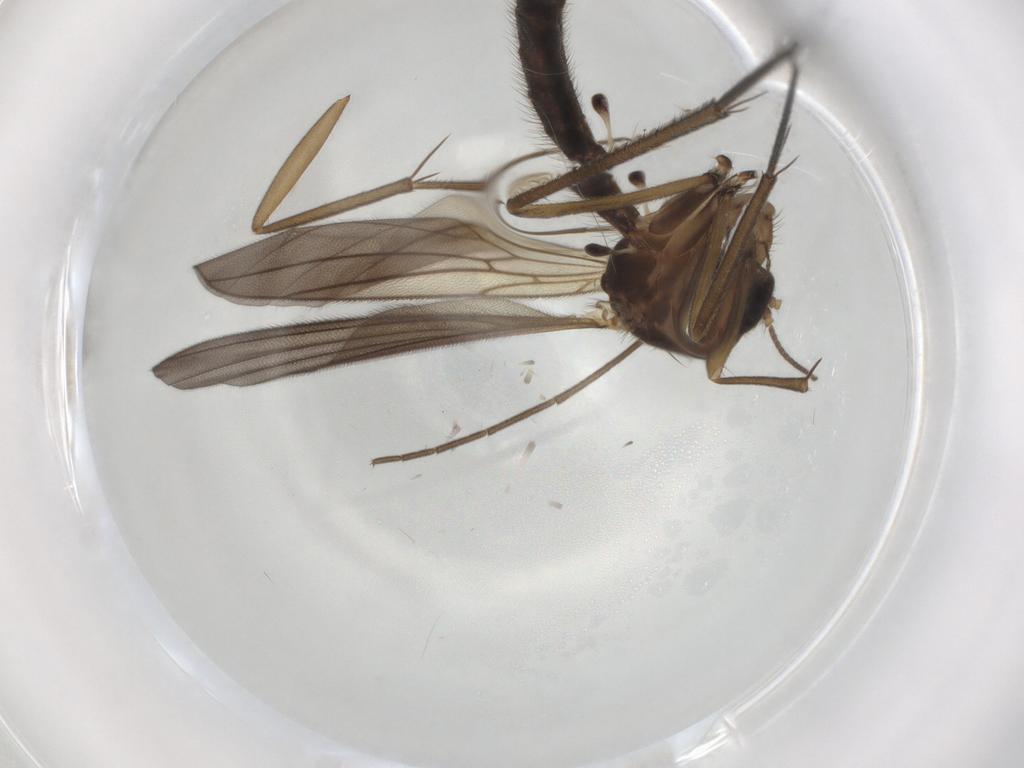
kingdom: Animalia
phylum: Arthropoda
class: Insecta
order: Diptera
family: Mycetophilidae
